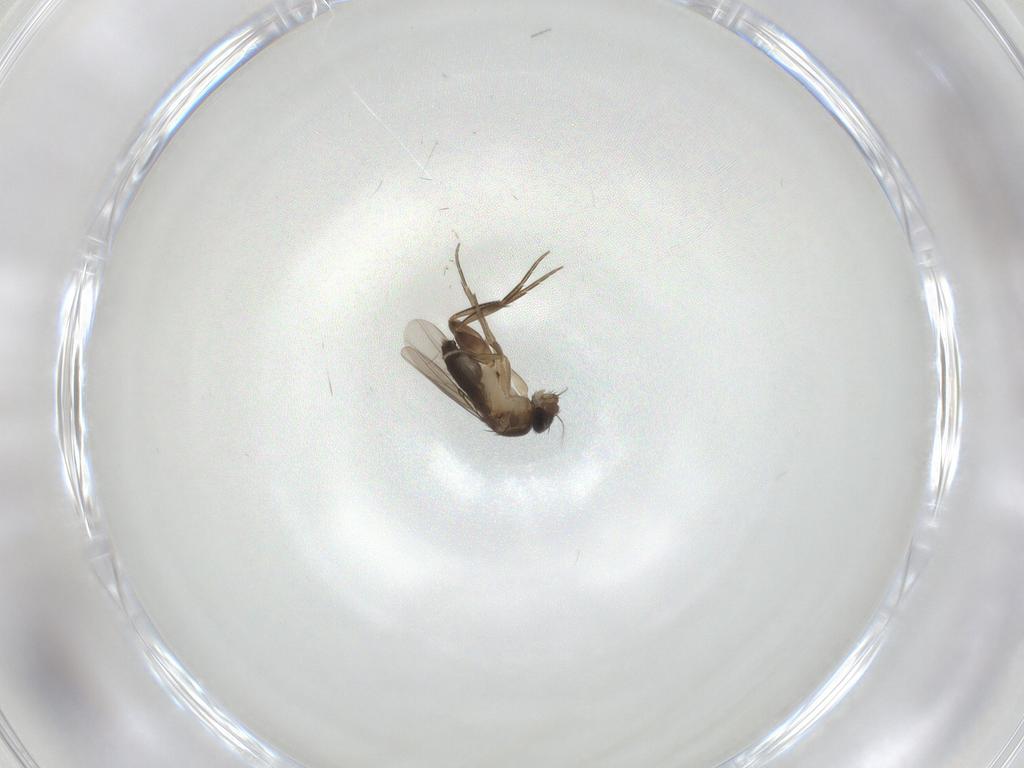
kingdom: Animalia
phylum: Arthropoda
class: Insecta
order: Diptera
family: Phoridae
